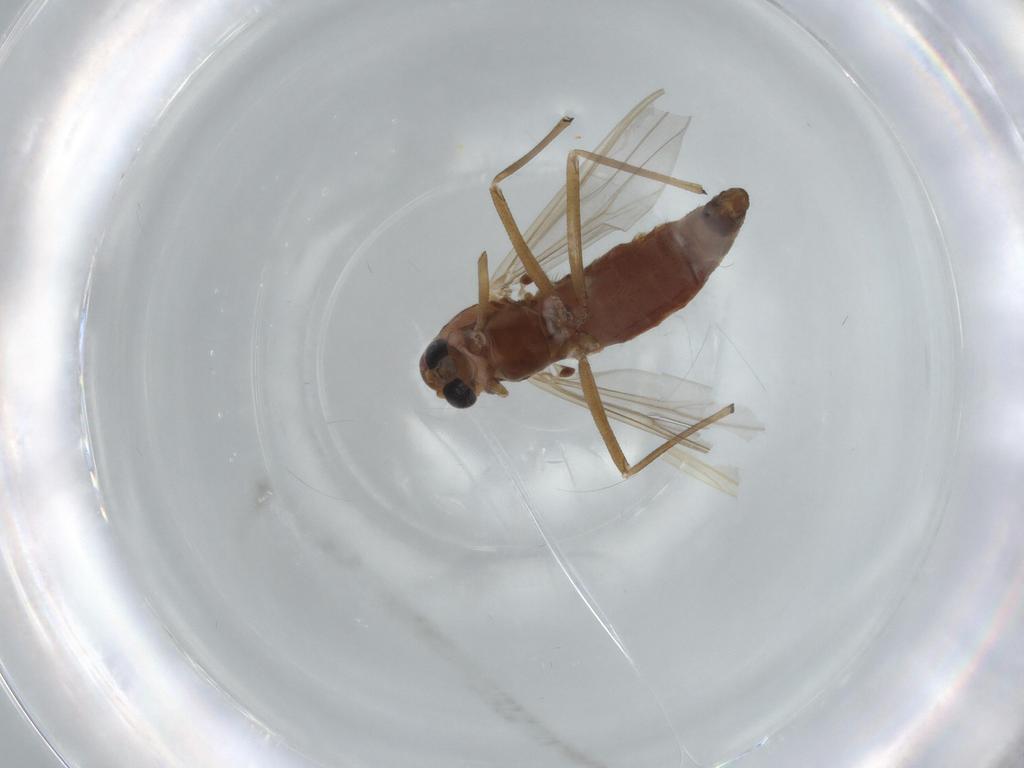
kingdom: Animalia
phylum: Arthropoda
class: Insecta
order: Diptera
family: Chironomidae
